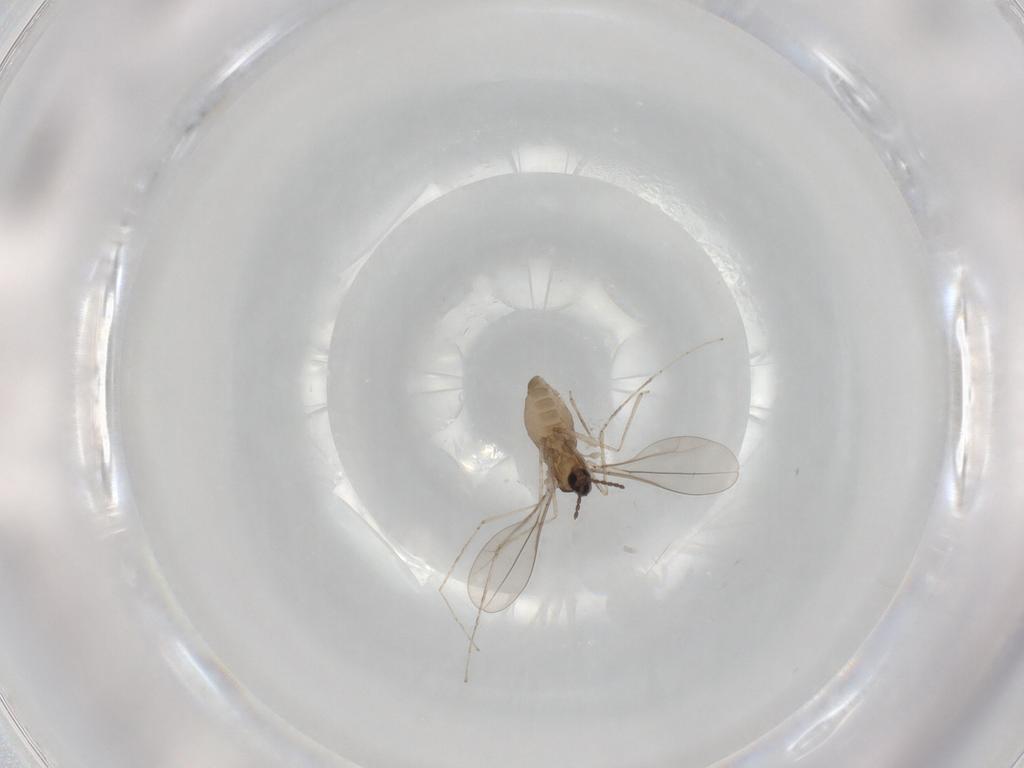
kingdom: Animalia
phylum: Arthropoda
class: Insecta
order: Diptera
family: Cecidomyiidae
